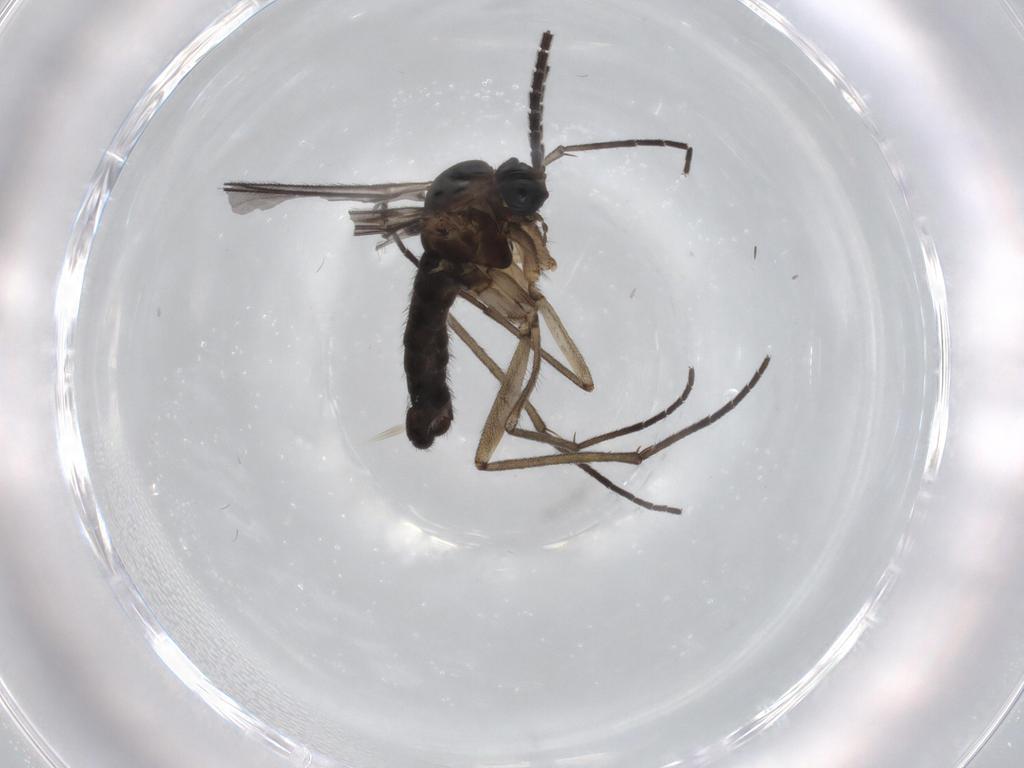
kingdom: Animalia
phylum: Arthropoda
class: Insecta
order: Diptera
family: Sciaridae
